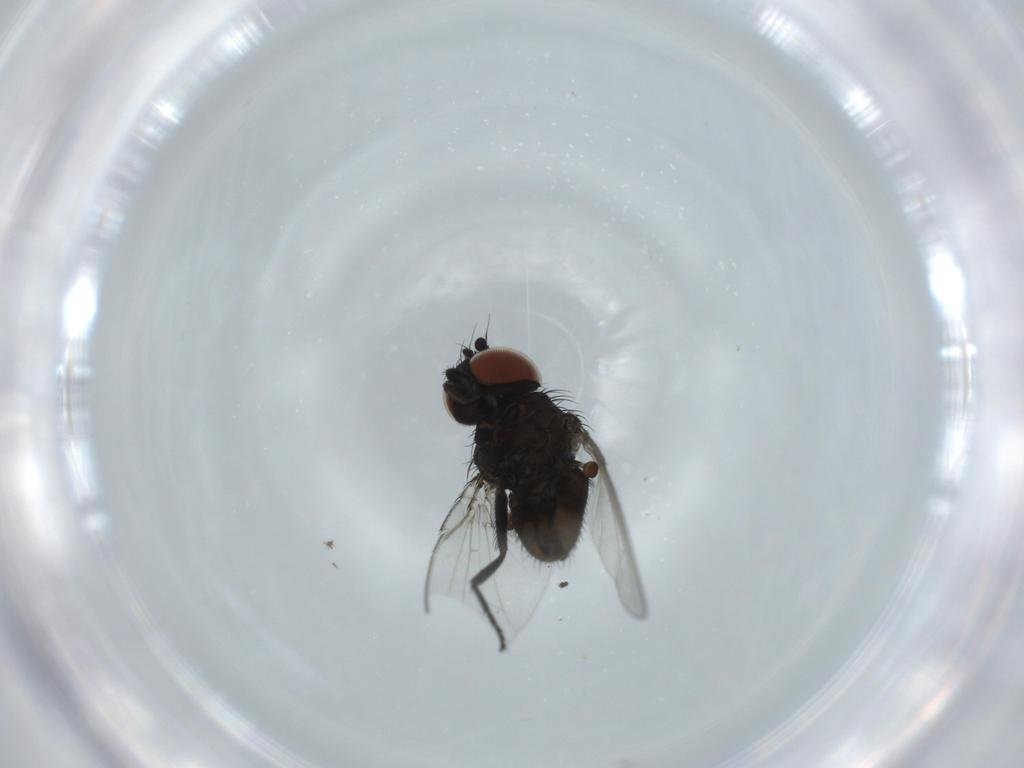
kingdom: Animalia
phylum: Arthropoda
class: Insecta
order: Diptera
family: Milichiidae
